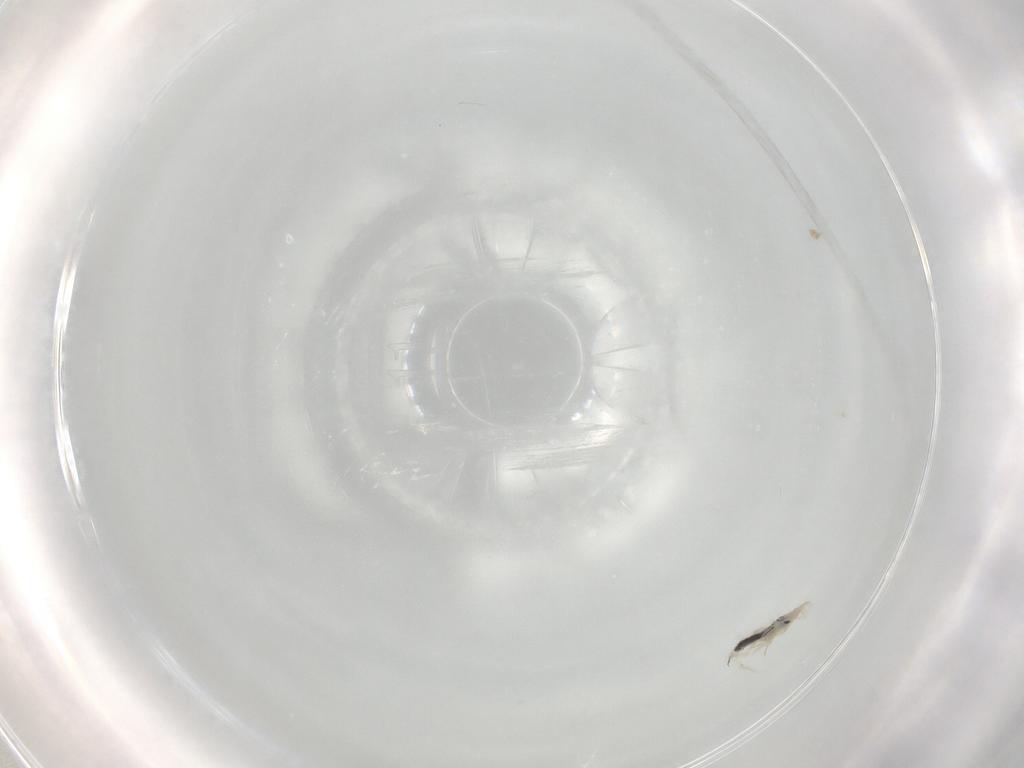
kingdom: Animalia
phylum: Arthropoda
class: Collembola
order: Entomobryomorpha
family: Entomobryidae
